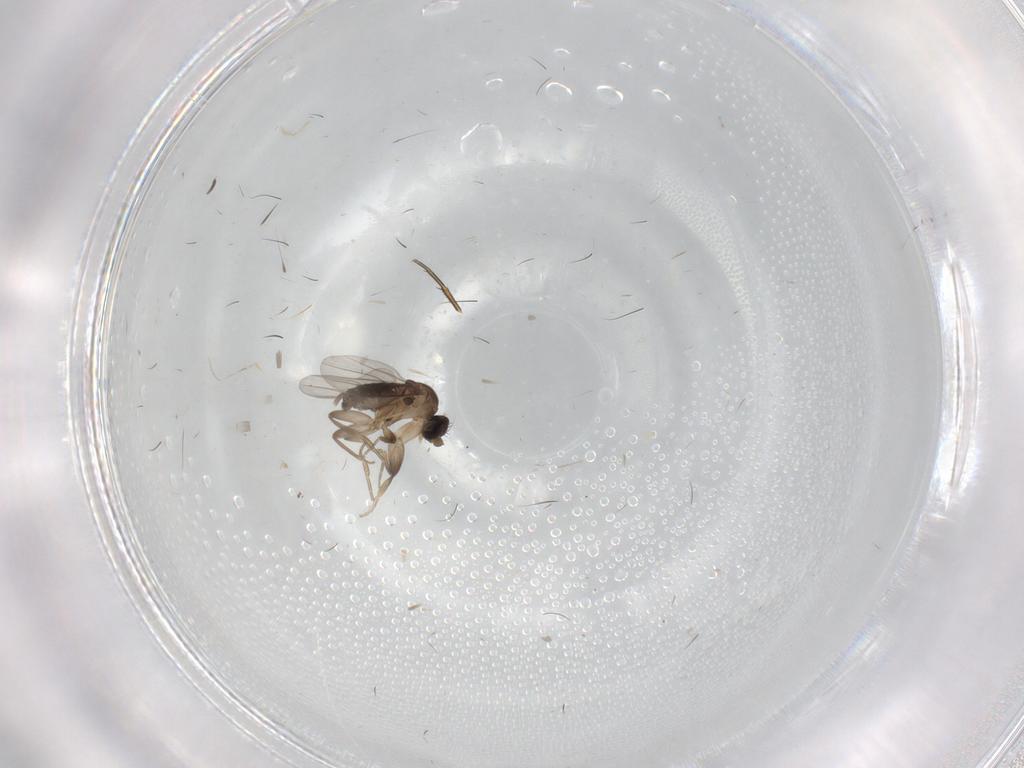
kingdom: Animalia
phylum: Arthropoda
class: Insecta
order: Diptera
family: Phoridae
